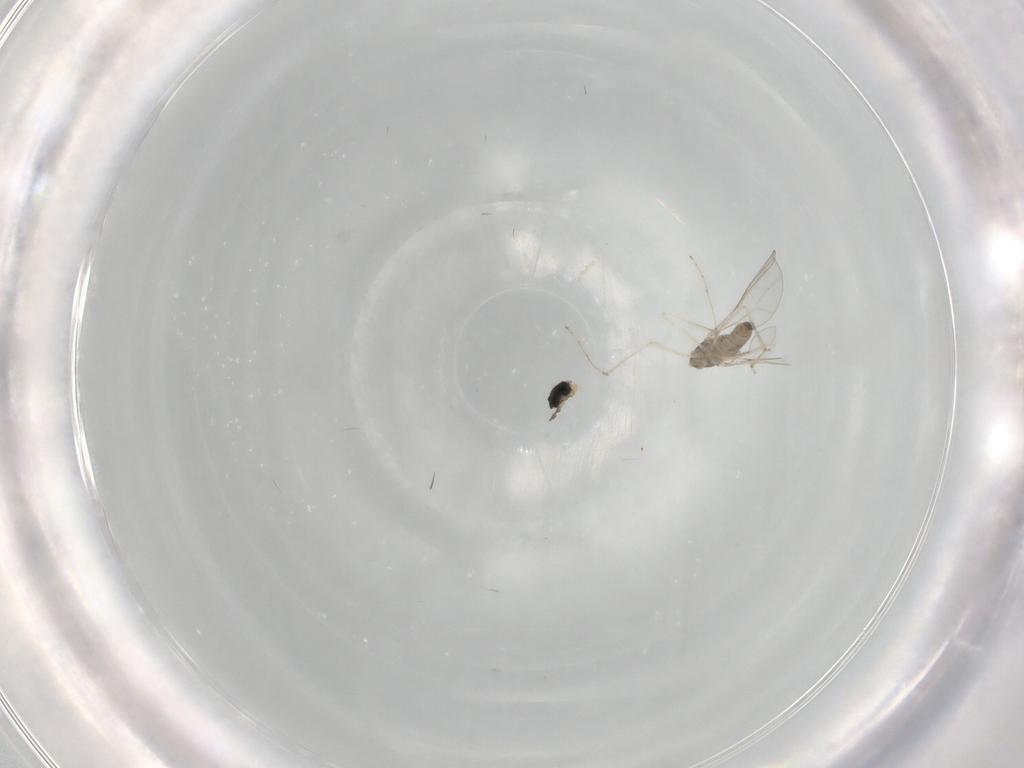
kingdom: Animalia
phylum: Arthropoda
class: Insecta
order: Diptera
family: Cecidomyiidae
